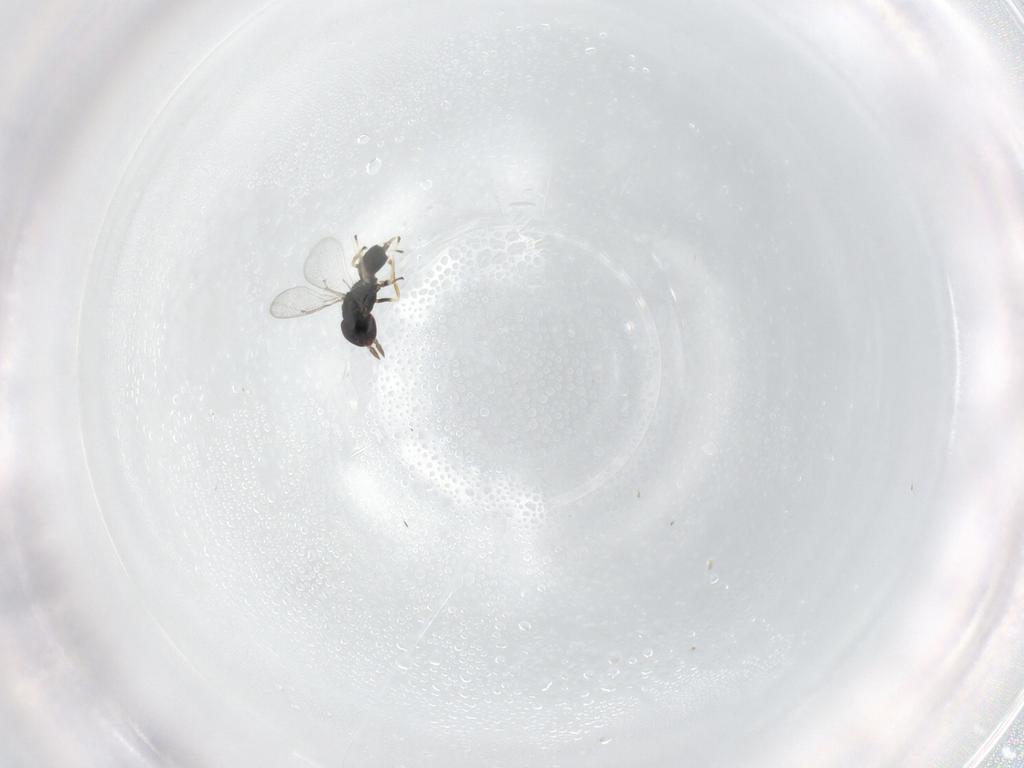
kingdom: Animalia
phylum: Arthropoda
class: Insecta
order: Hymenoptera
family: Eulophidae
